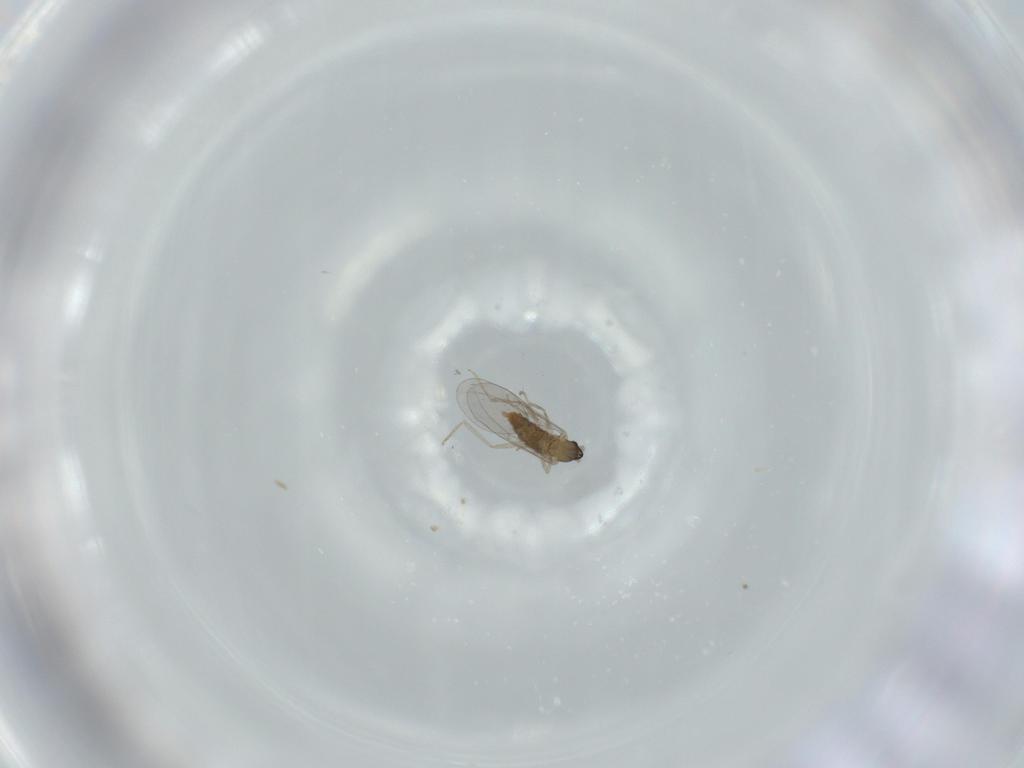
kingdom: Animalia
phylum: Arthropoda
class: Insecta
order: Diptera
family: Cecidomyiidae
